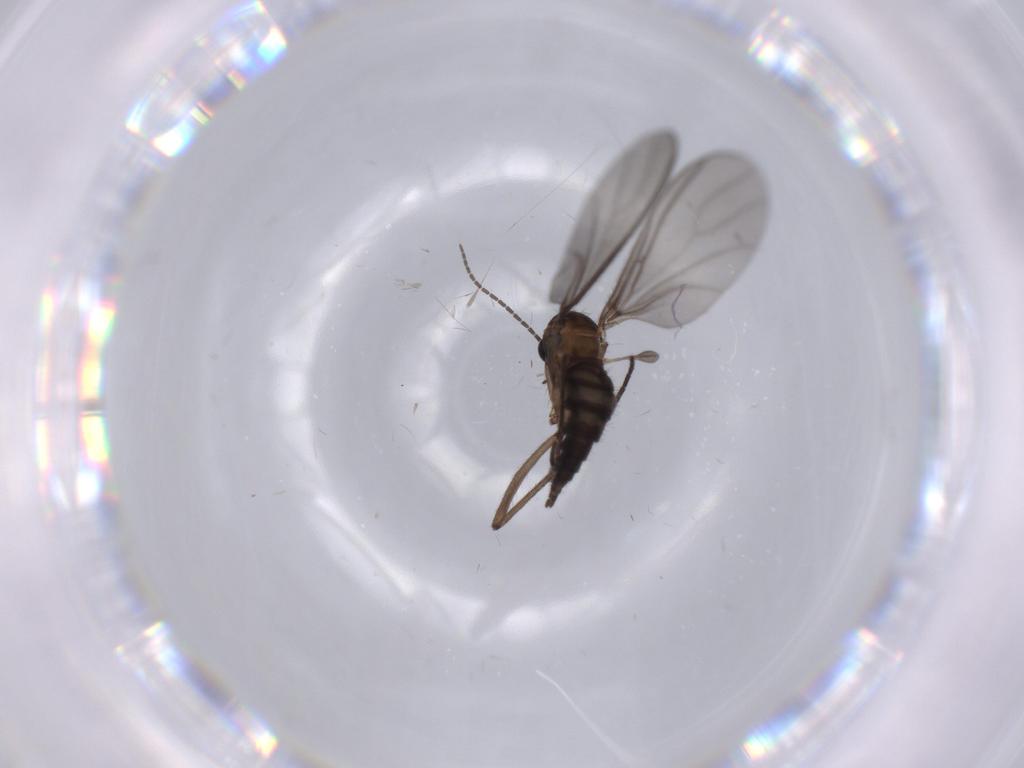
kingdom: Animalia
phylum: Arthropoda
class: Insecta
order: Diptera
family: Sciaridae
